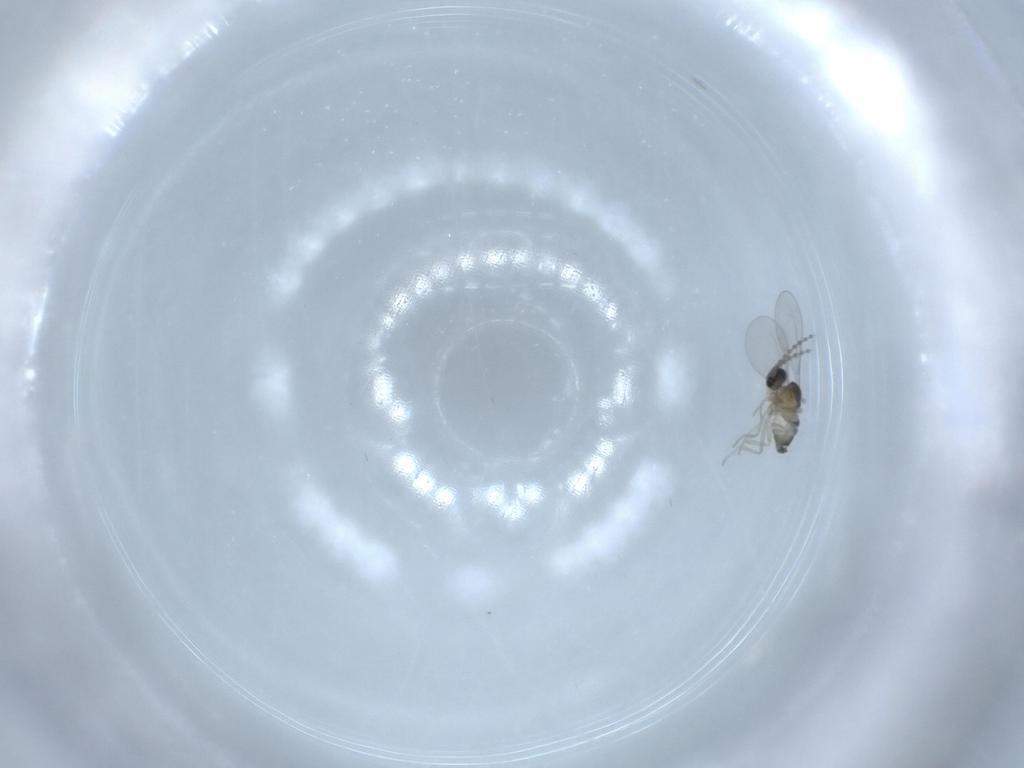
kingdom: Animalia
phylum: Arthropoda
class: Insecta
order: Diptera
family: Cecidomyiidae
